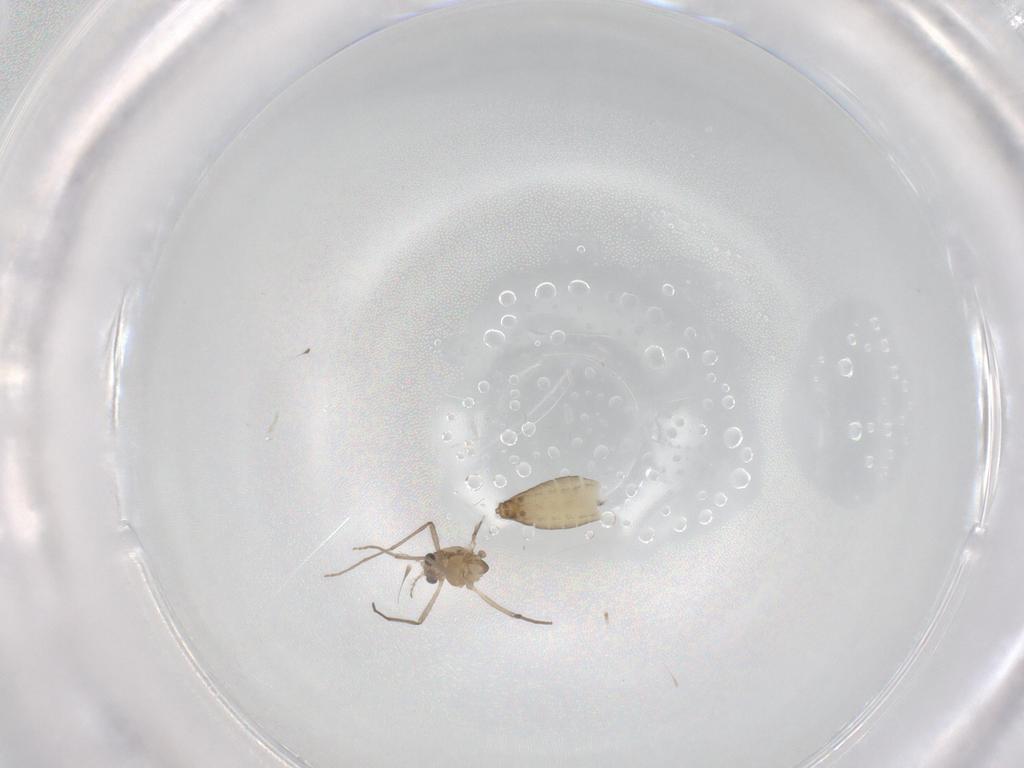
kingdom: Animalia
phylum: Arthropoda
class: Insecta
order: Diptera
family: Chironomidae
